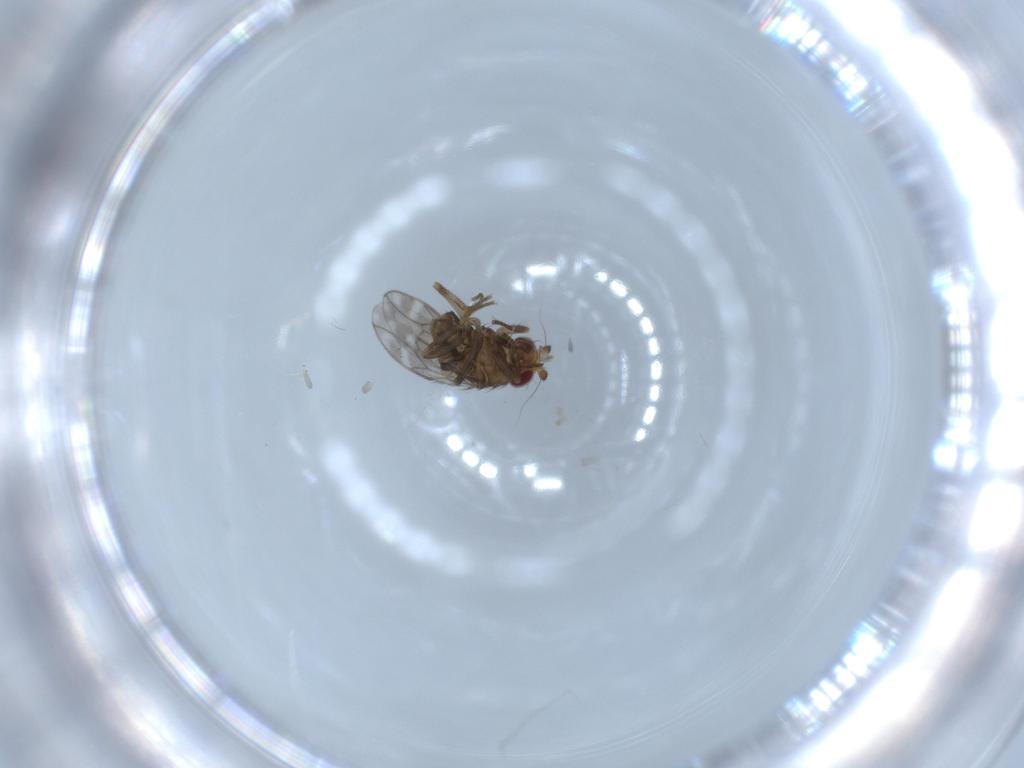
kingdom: Animalia
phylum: Arthropoda
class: Insecta
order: Diptera
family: Sphaeroceridae
